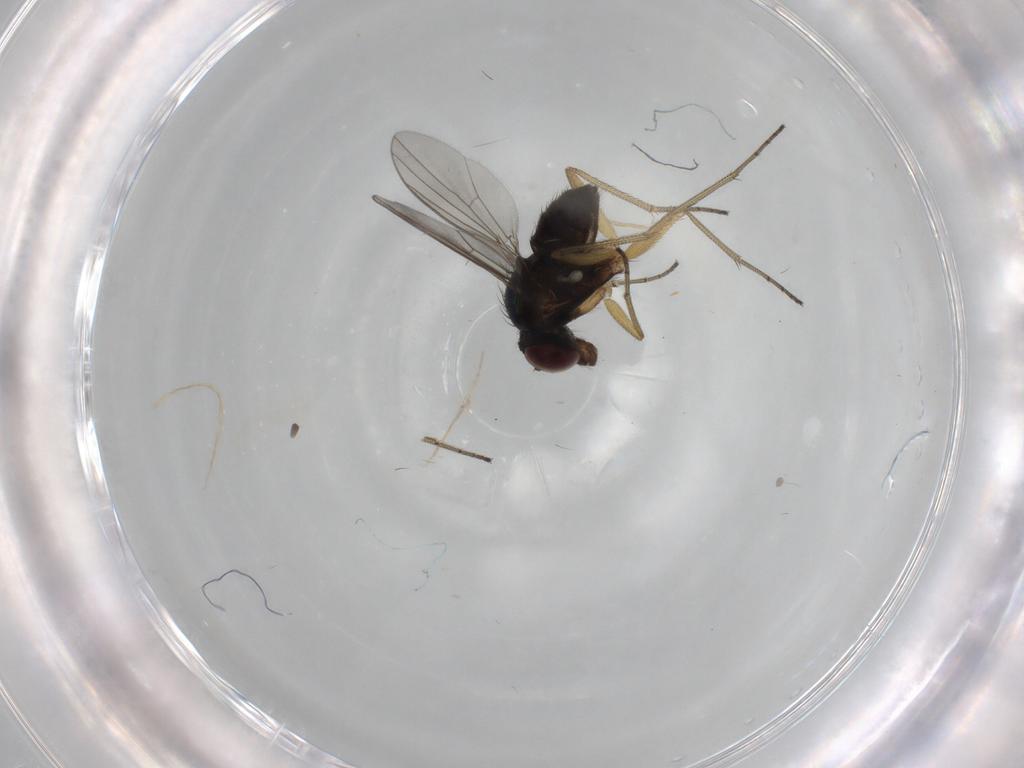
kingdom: Animalia
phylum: Arthropoda
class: Insecta
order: Diptera
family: Dolichopodidae
